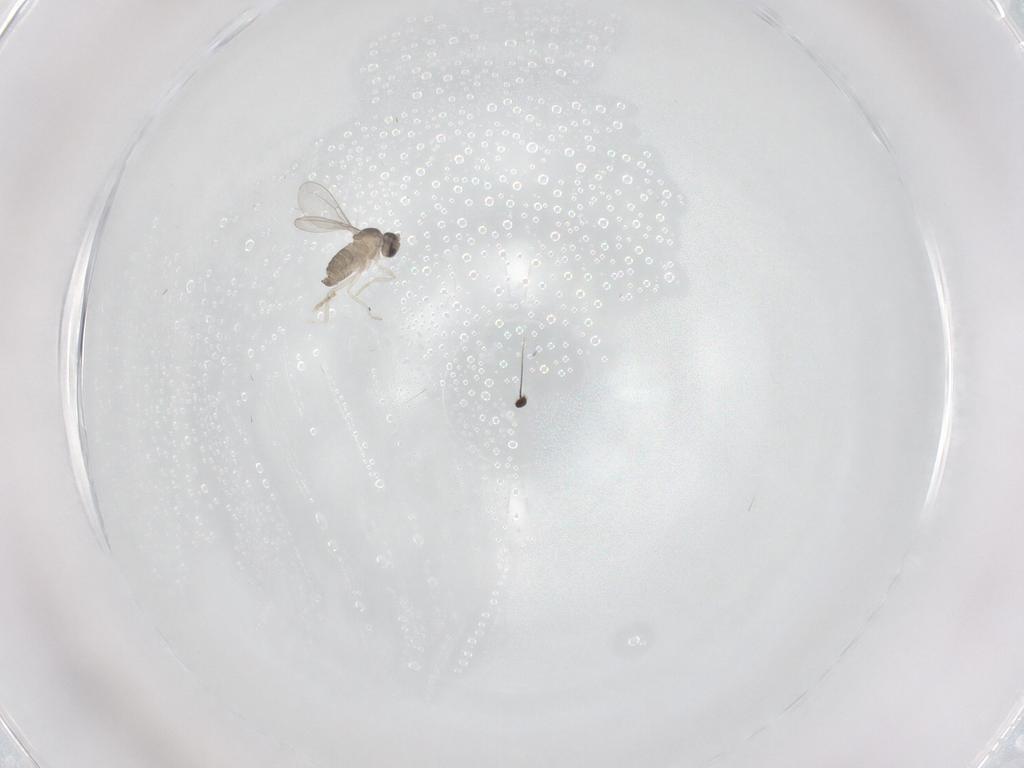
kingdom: Animalia
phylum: Arthropoda
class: Insecta
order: Diptera
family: Ceratopogonidae
